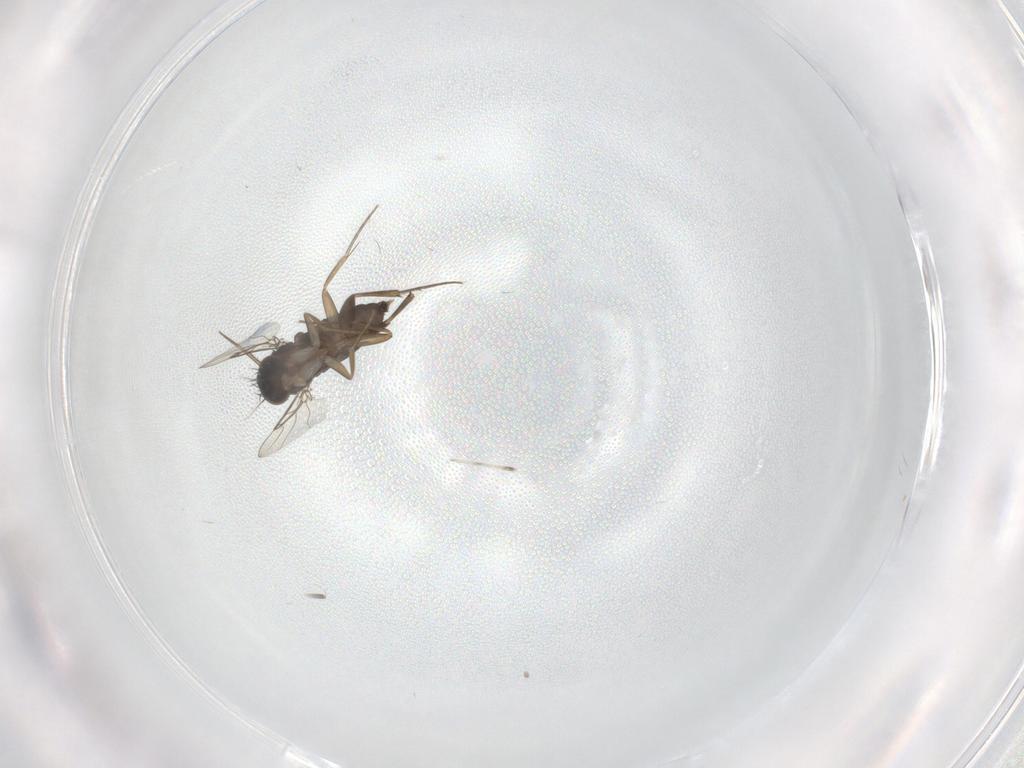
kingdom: Animalia
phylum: Arthropoda
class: Insecta
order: Diptera
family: Phoridae
